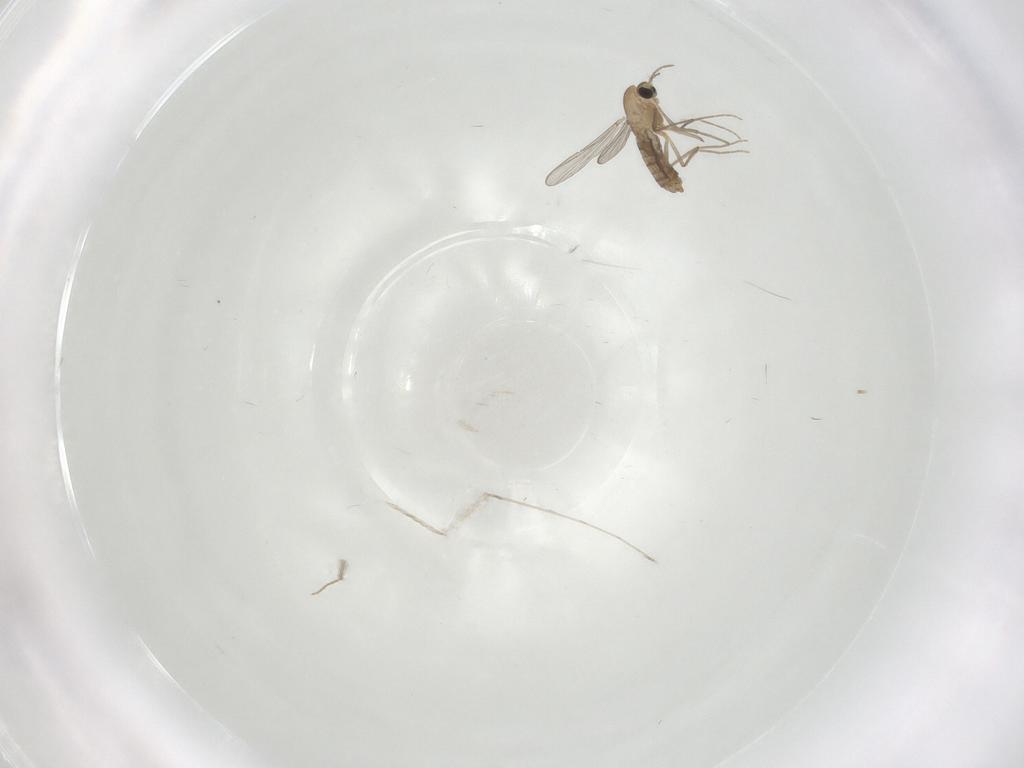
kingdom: Animalia
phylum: Arthropoda
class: Insecta
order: Diptera
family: Cecidomyiidae
